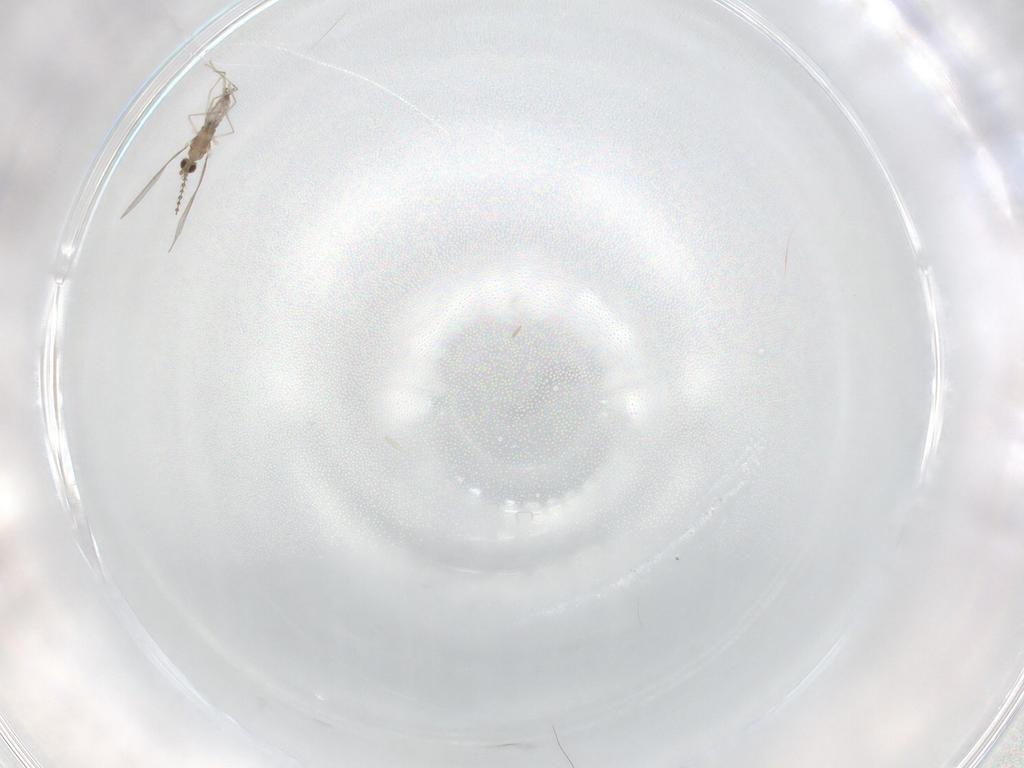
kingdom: Animalia
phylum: Arthropoda
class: Insecta
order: Diptera
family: Cecidomyiidae
